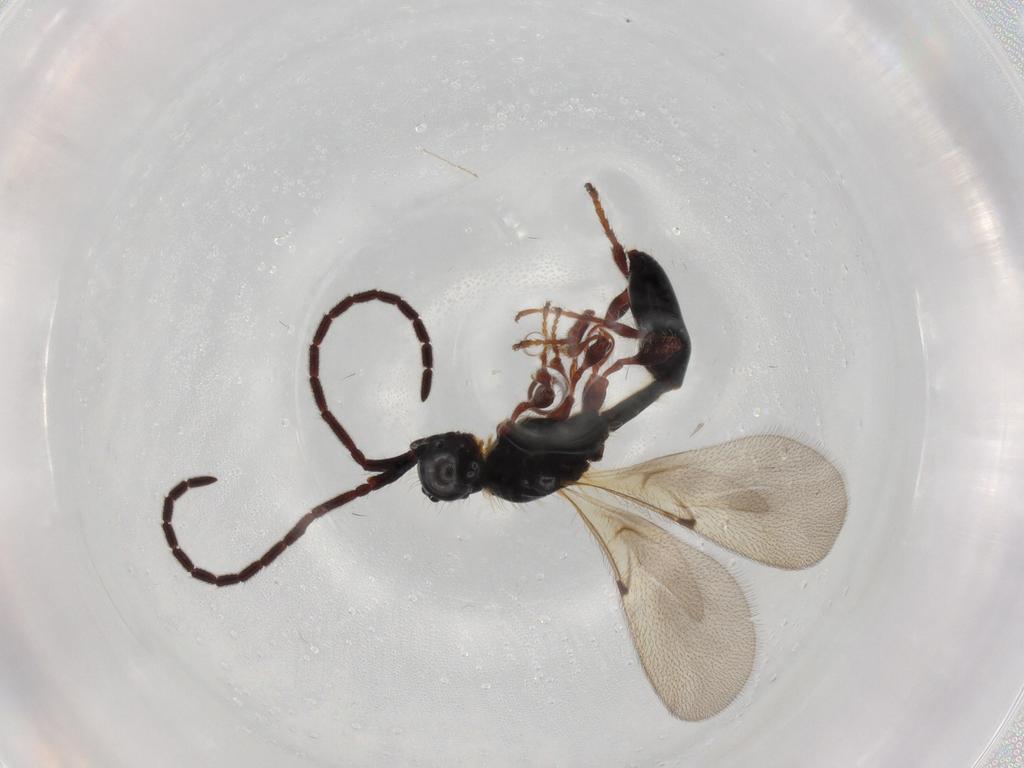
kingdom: Animalia
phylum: Arthropoda
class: Insecta
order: Hymenoptera
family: Diapriidae
